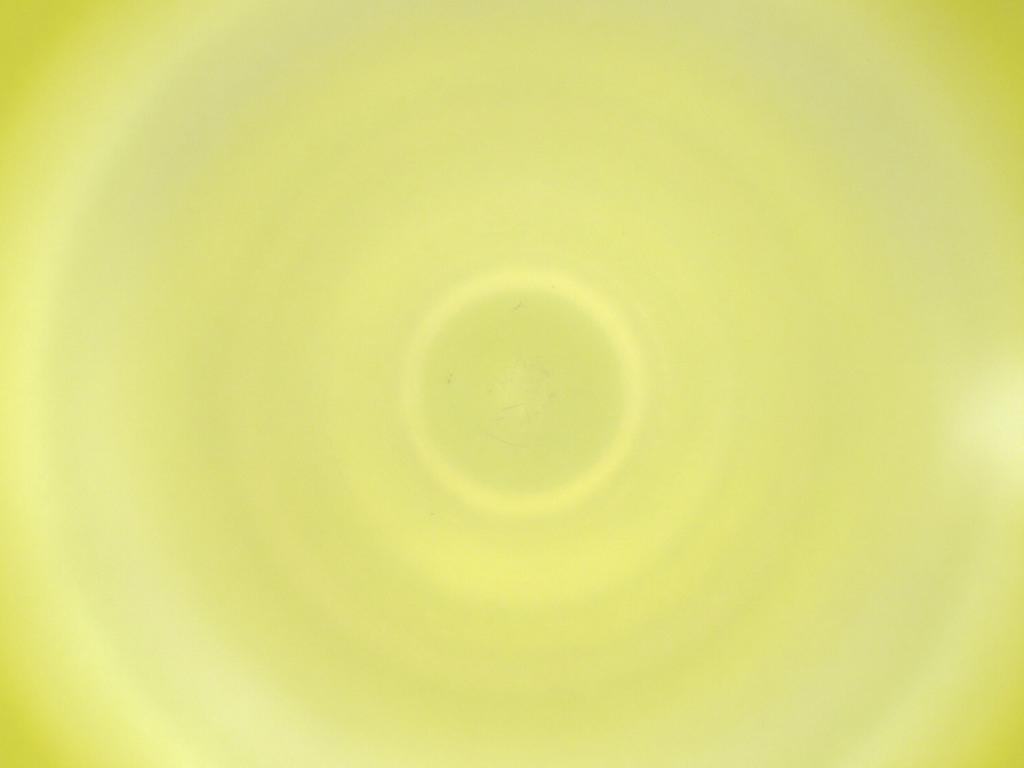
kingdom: Animalia
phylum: Arthropoda
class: Insecta
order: Diptera
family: Cecidomyiidae
